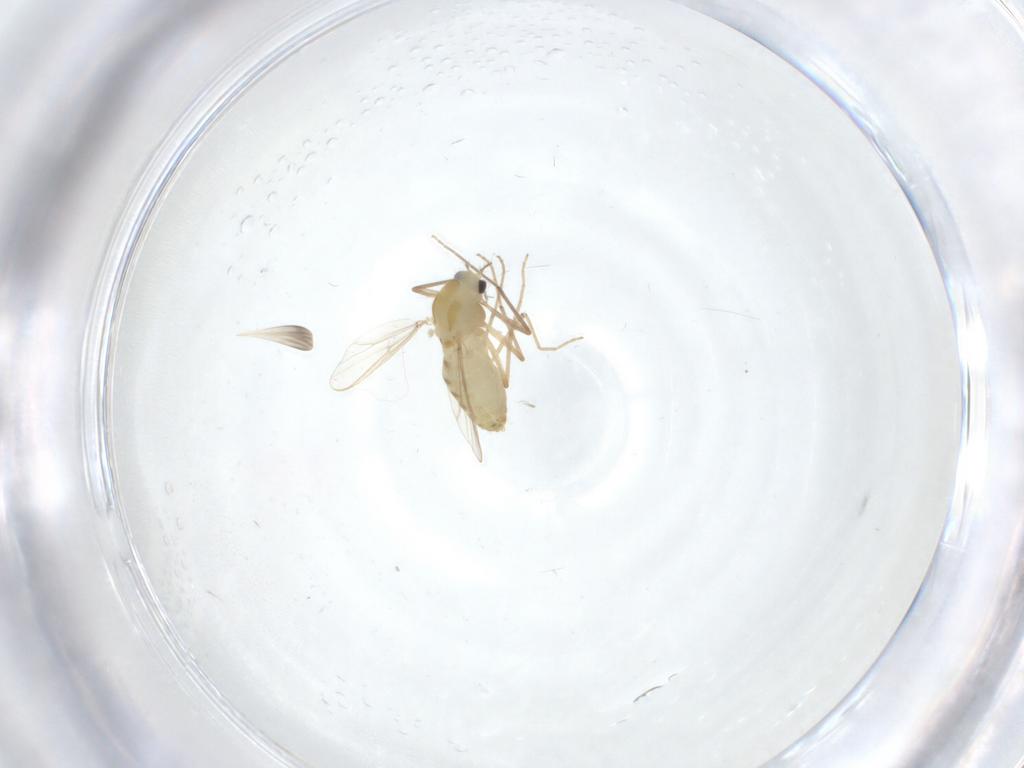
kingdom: Animalia
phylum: Arthropoda
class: Insecta
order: Diptera
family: Chironomidae
